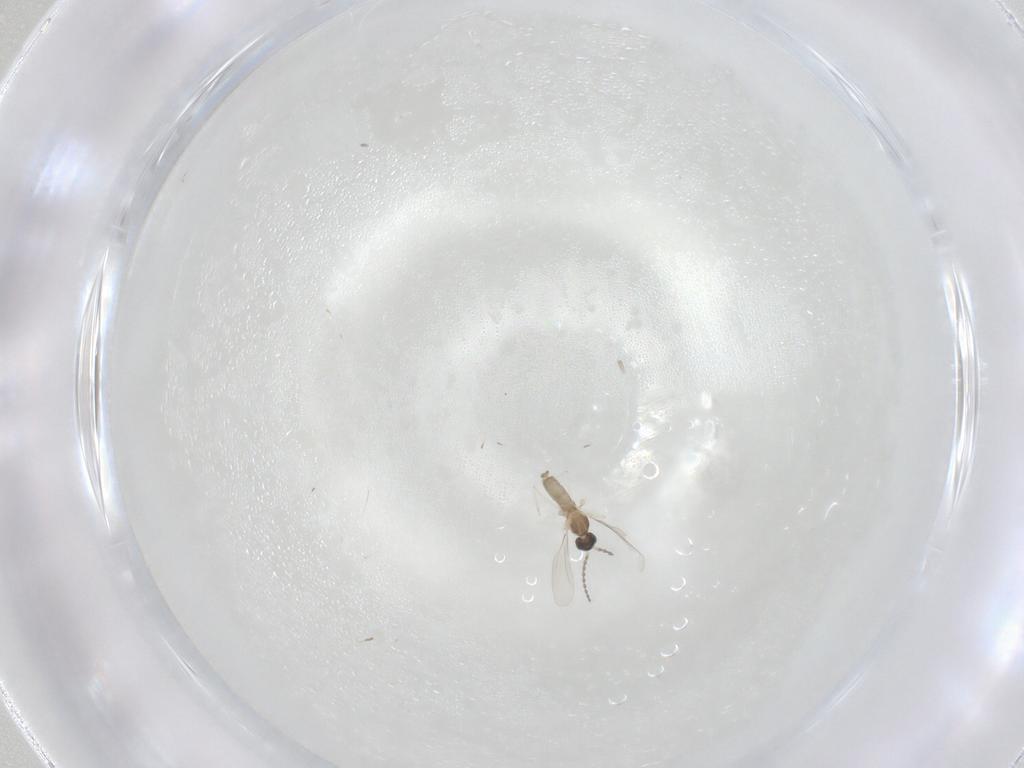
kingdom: Animalia
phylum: Arthropoda
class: Insecta
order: Diptera
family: Cecidomyiidae
